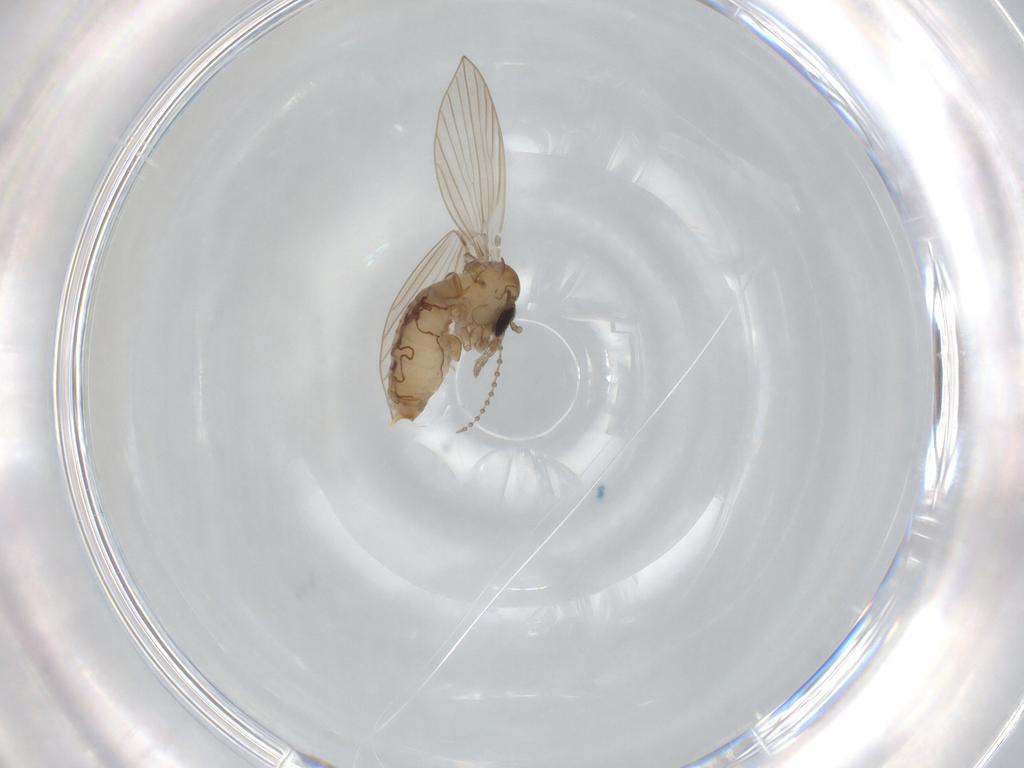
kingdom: Animalia
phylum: Arthropoda
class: Insecta
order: Diptera
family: Psychodidae
